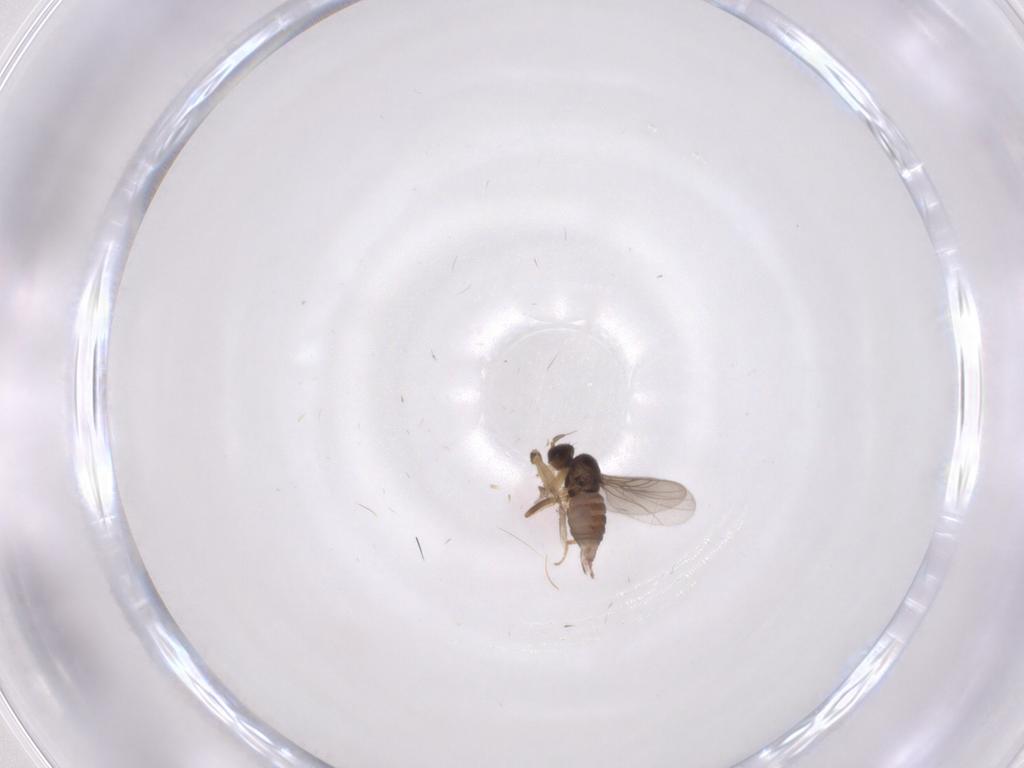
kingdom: Animalia
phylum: Arthropoda
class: Insecta
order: Diptera
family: Hybotidae
